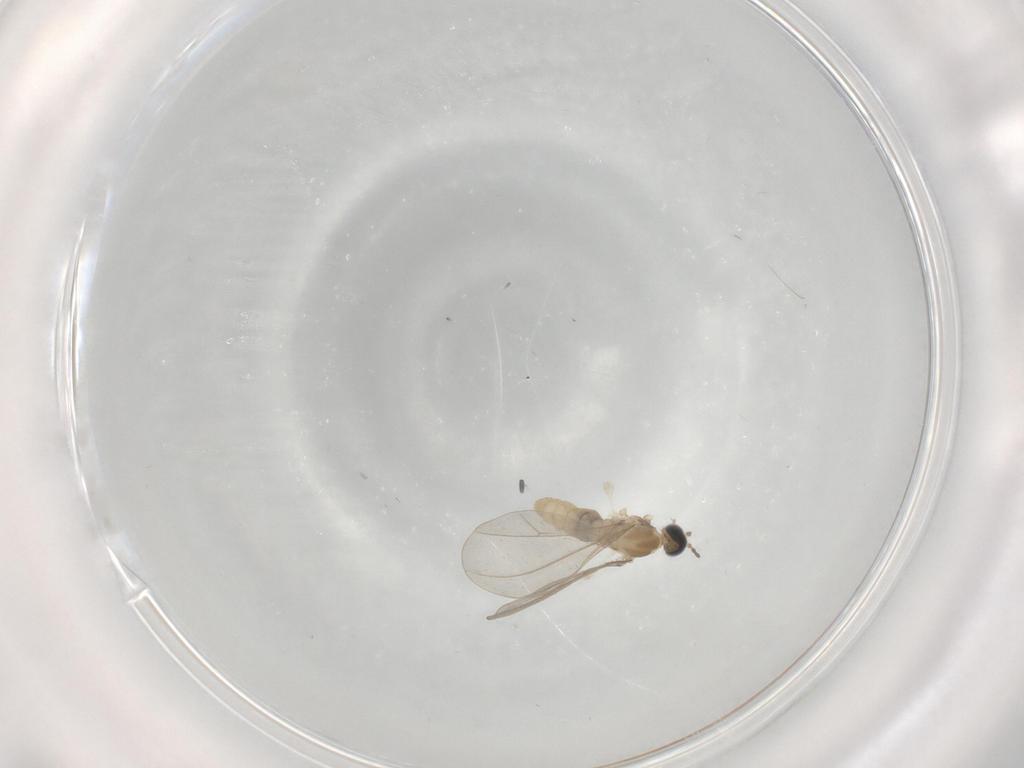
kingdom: Animalia
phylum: Arthropoda
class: Insecta
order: Diptera
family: Cecidomyiidae
